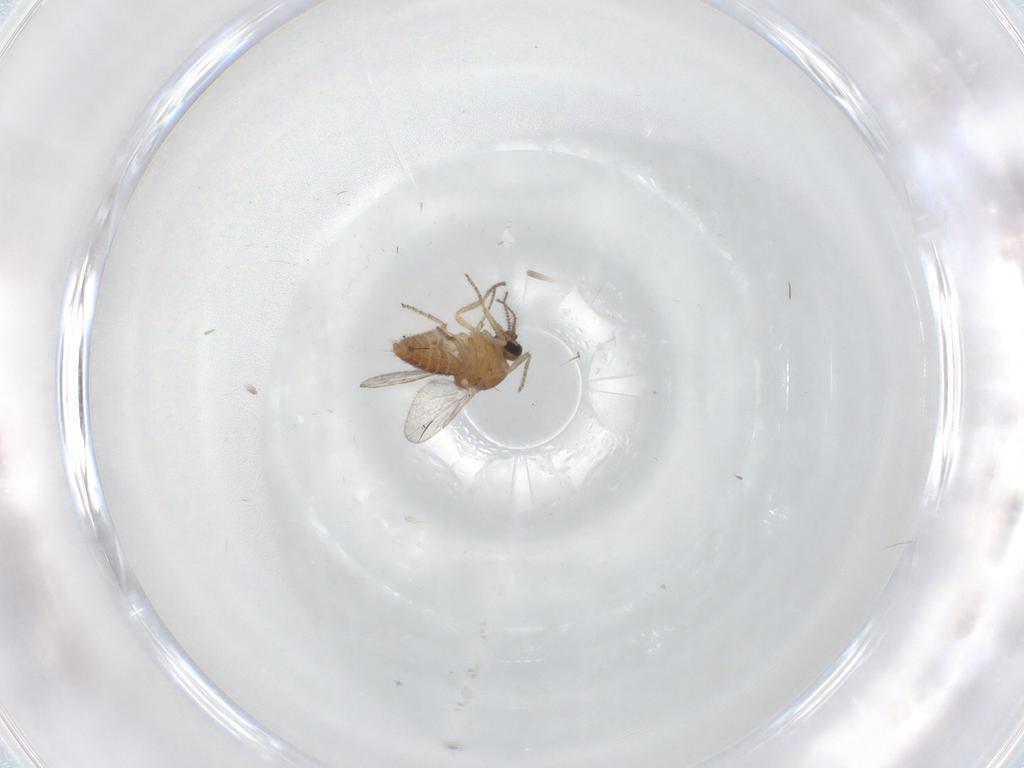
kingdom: Animalia
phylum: Arthropoda
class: Insecta
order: Diptera
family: Ceratopogonidae
